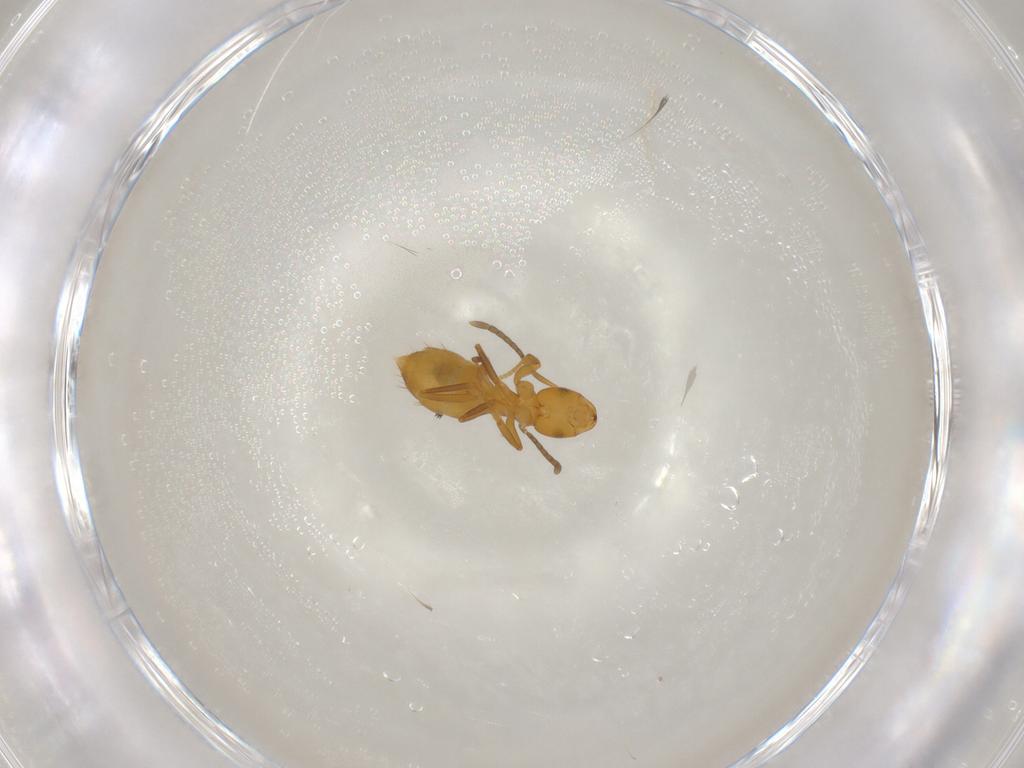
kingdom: Animalia
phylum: Arthropoda
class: Insecta
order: Hymenoptera
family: Formicidae
